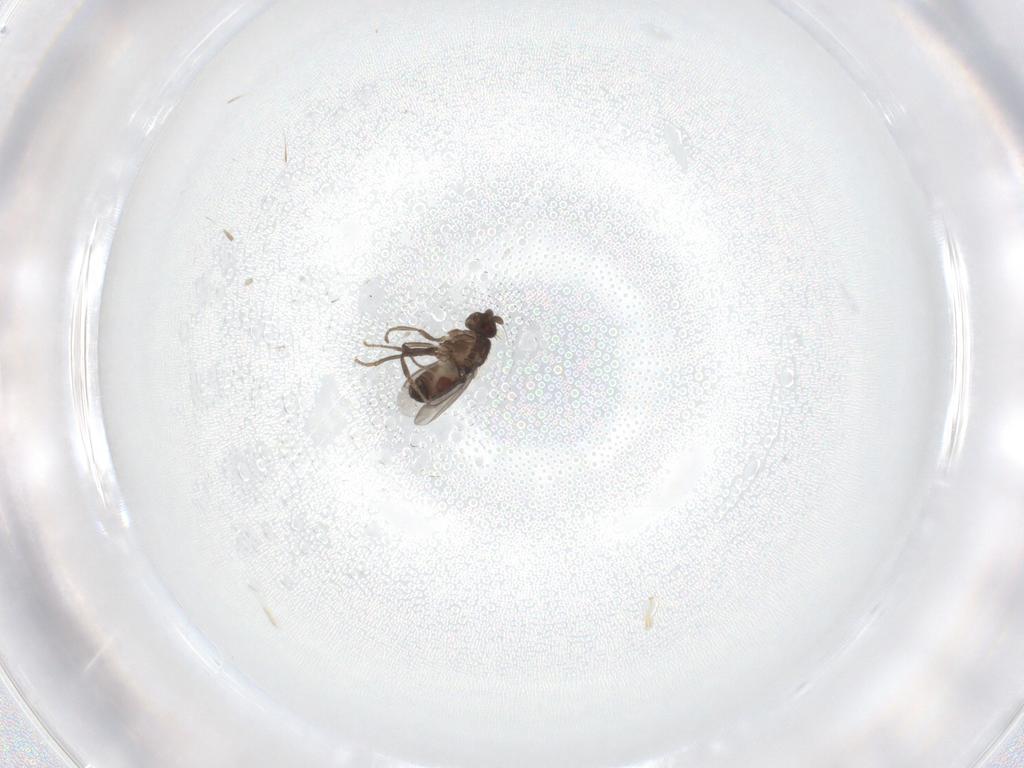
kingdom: Animalia
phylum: Arthropoda
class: Insecta
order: Diptera
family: Sphaeroceridae
